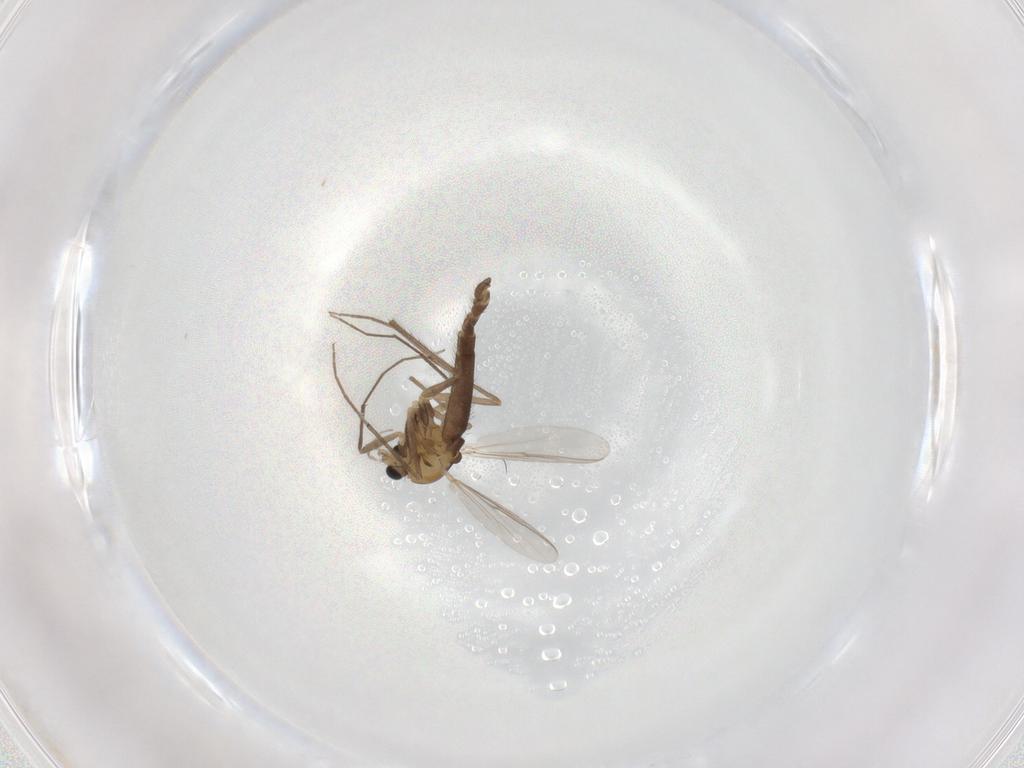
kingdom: Animalia
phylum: Arthropoda
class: Insecta
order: Diptera
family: Chironomidae
